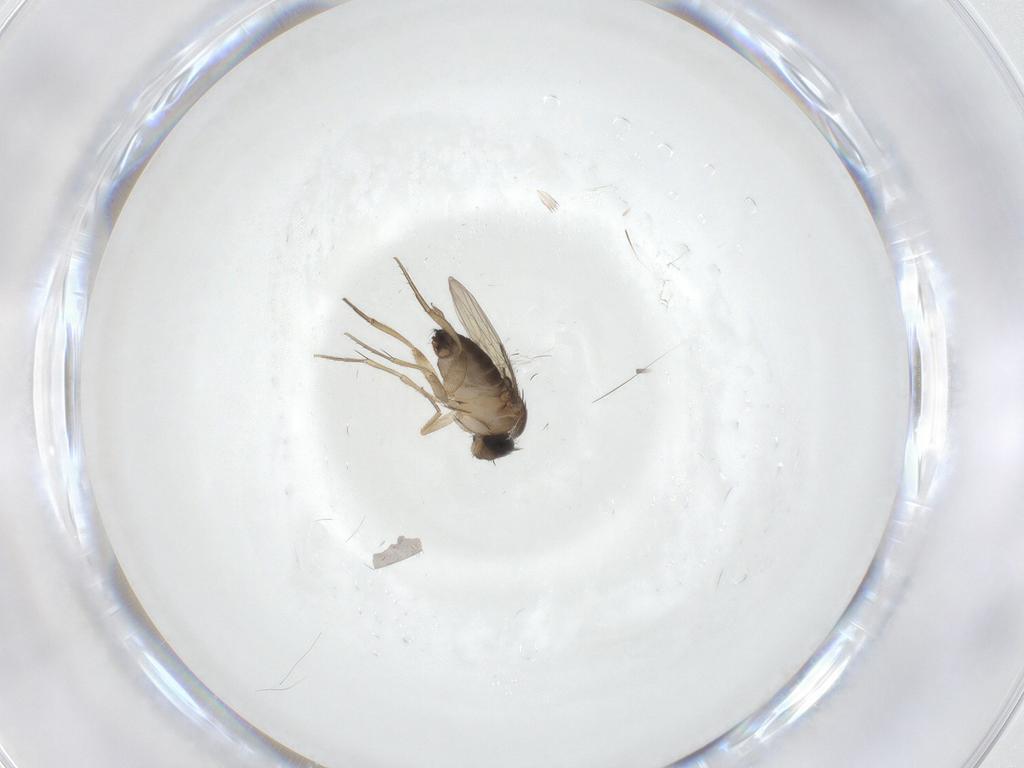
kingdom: Animalia
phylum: Arthropoda
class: Insecta
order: Diptera
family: Phoridae
